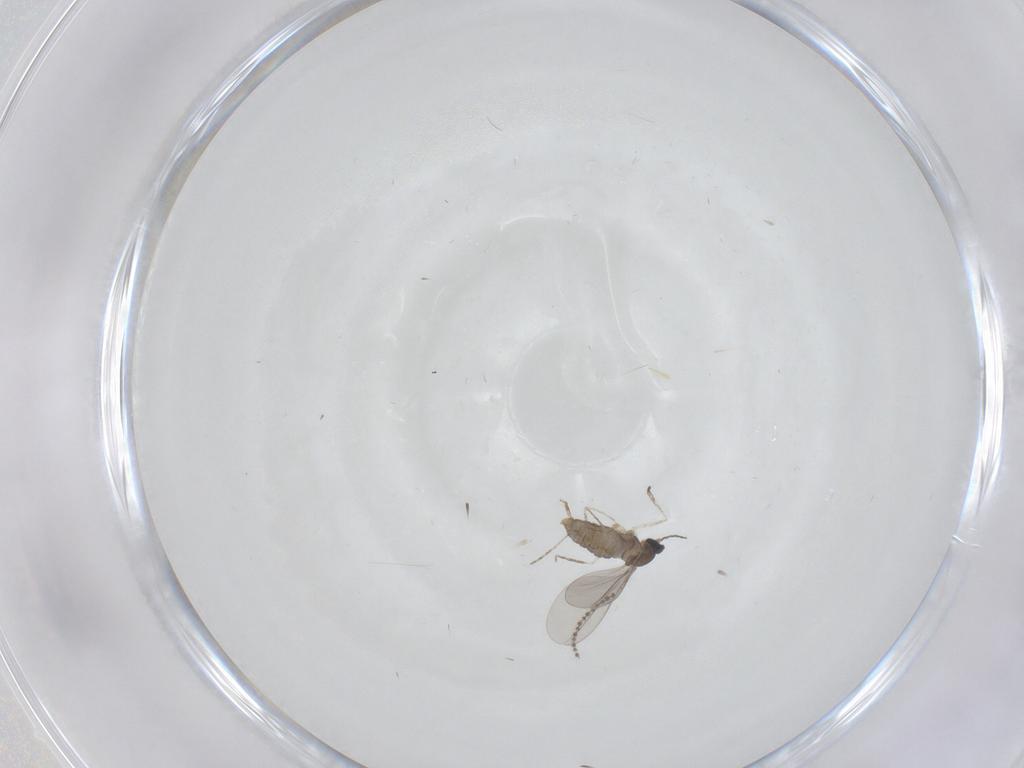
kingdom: Animalia
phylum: Arthropoda
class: Insecta
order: Diptera
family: Cecidomyiidae
